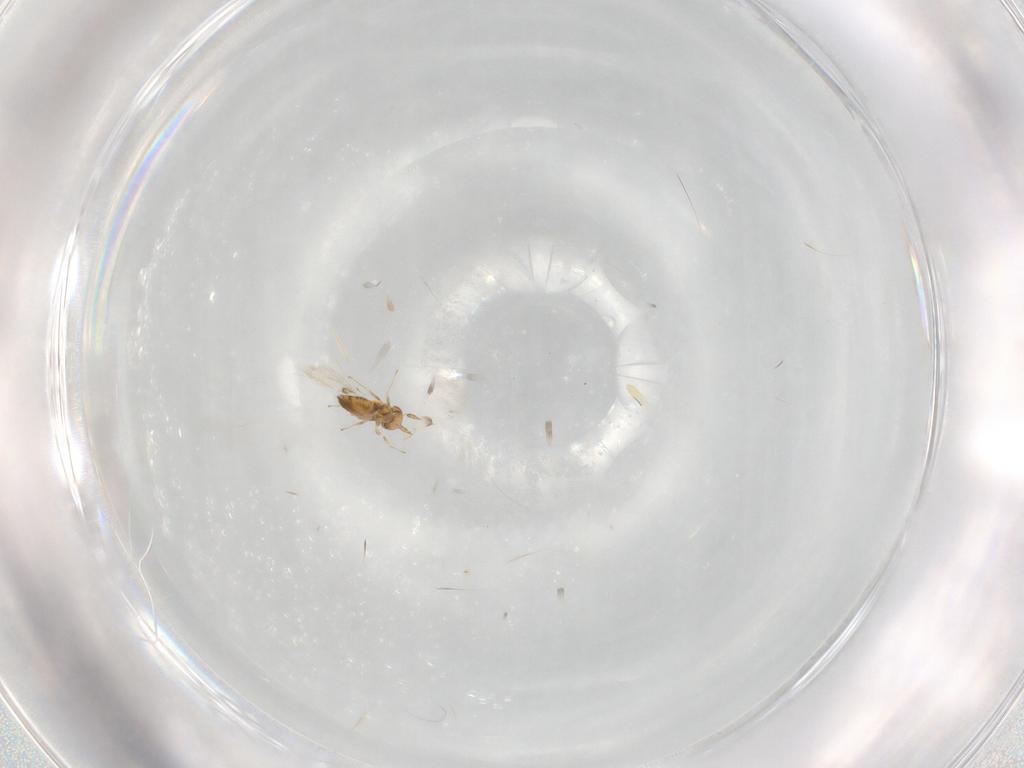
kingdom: Animalia
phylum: Arthropoda
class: Insecta
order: Hymenoptera
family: Trichogrammatidae
